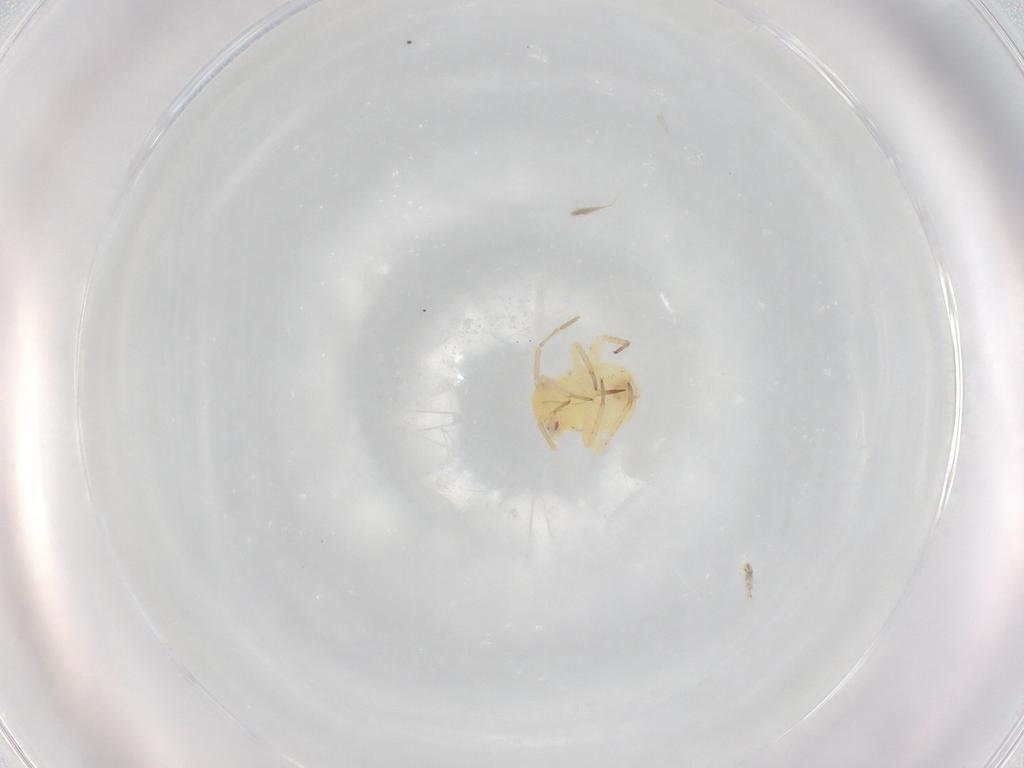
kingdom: Animalia
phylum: Arthropoda
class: Insecta
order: Hemiptera
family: Miridae
